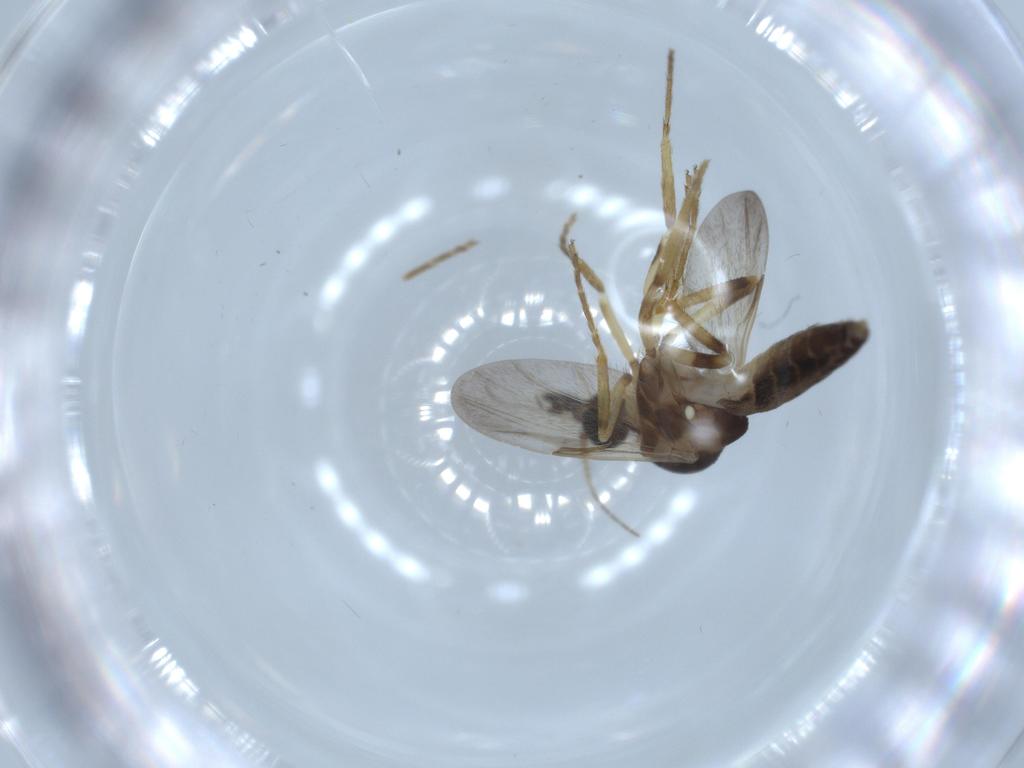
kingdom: Animalia
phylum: Arthropoda
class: Insecta
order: Diptera
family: Ceratopogonidae
